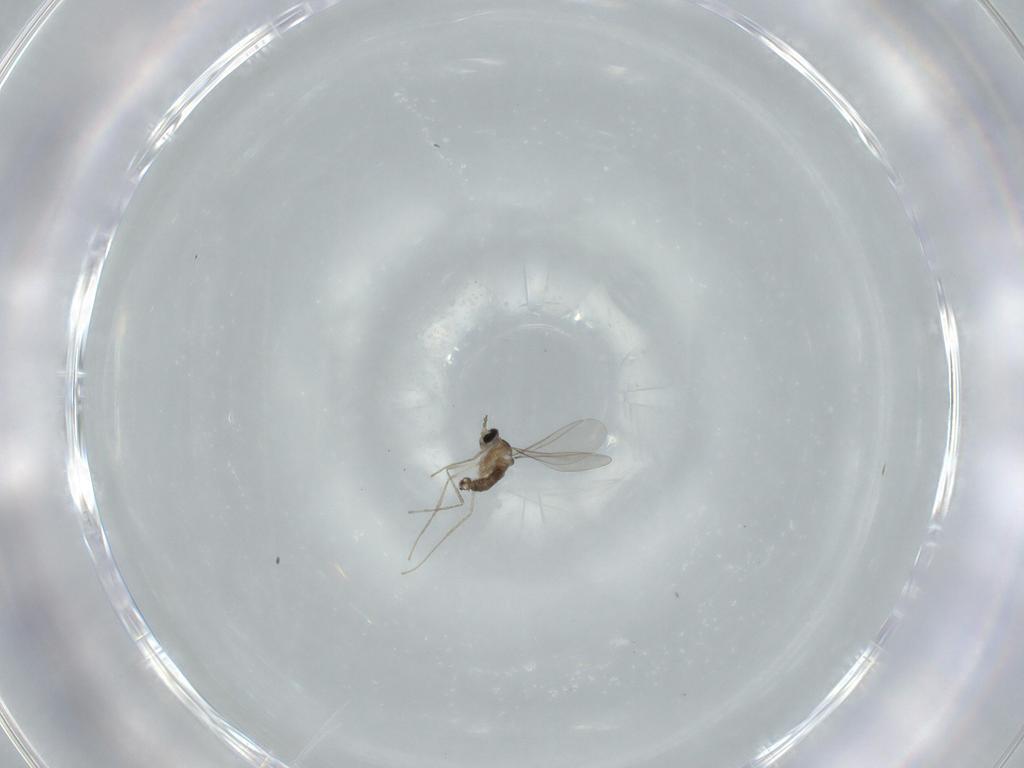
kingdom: Animalia
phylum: Arthropoda
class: Insecta
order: Diptera
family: Cecidomyiidae
